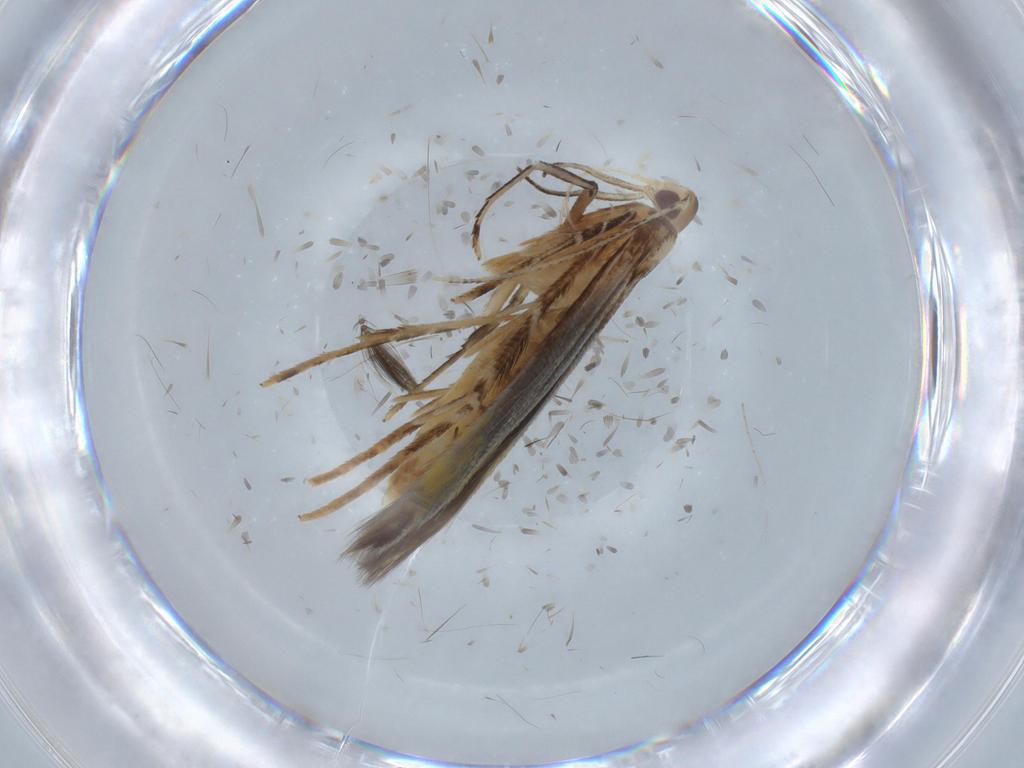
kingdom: Animalia
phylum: Arthropoda
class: Insecta
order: Lepidoptera
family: Cosmopterigidae
